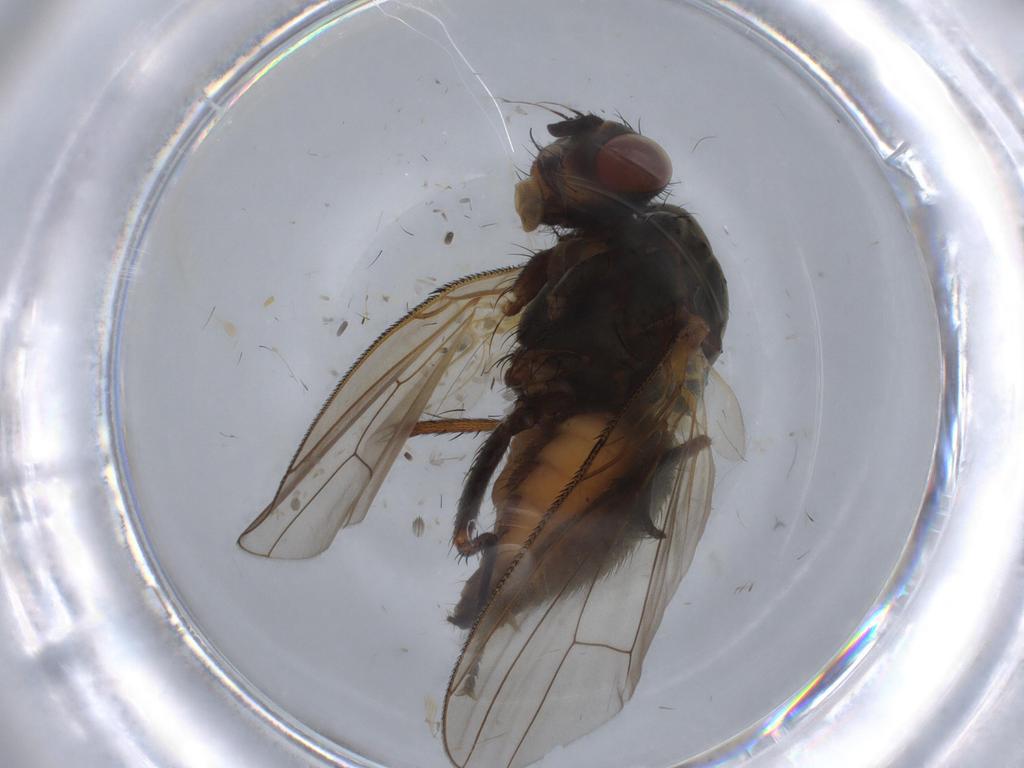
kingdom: Animalia
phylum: Arthropoda
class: Insecta
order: Diptera
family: Anthomyiidae
